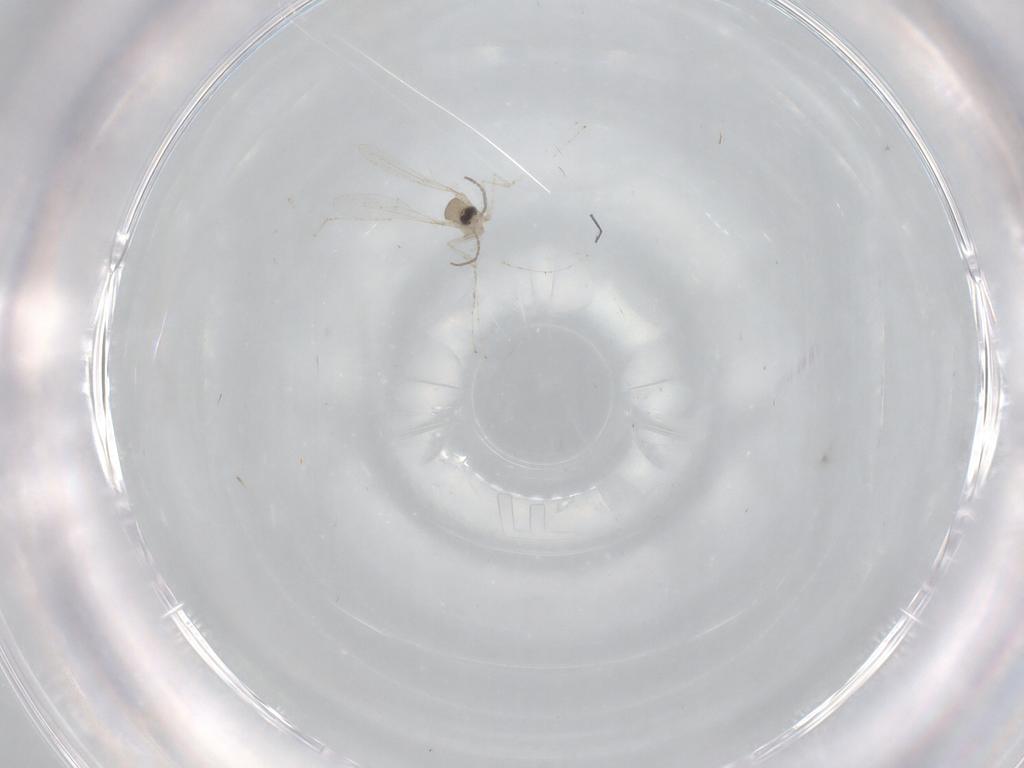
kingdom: Animalia
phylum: Arthropoda
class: Insecta
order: Diptera
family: Cecidomyiidae
